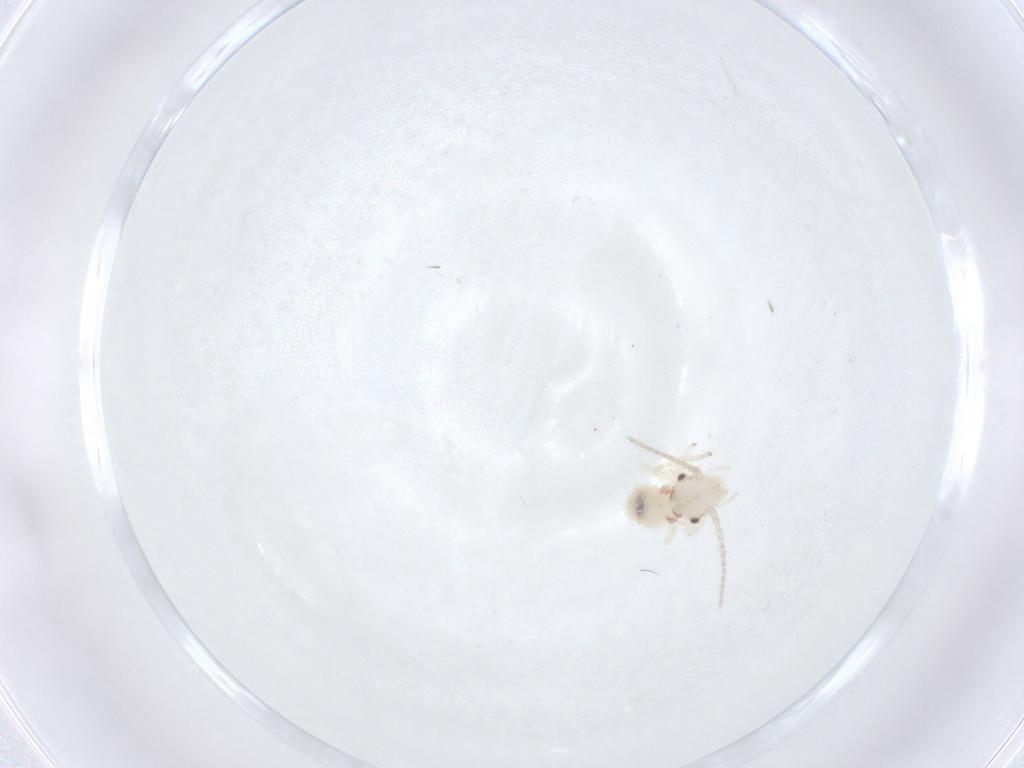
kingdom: Animalia
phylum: Arthropoda
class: Insecta
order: Psocodea
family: Amphipsocidae
